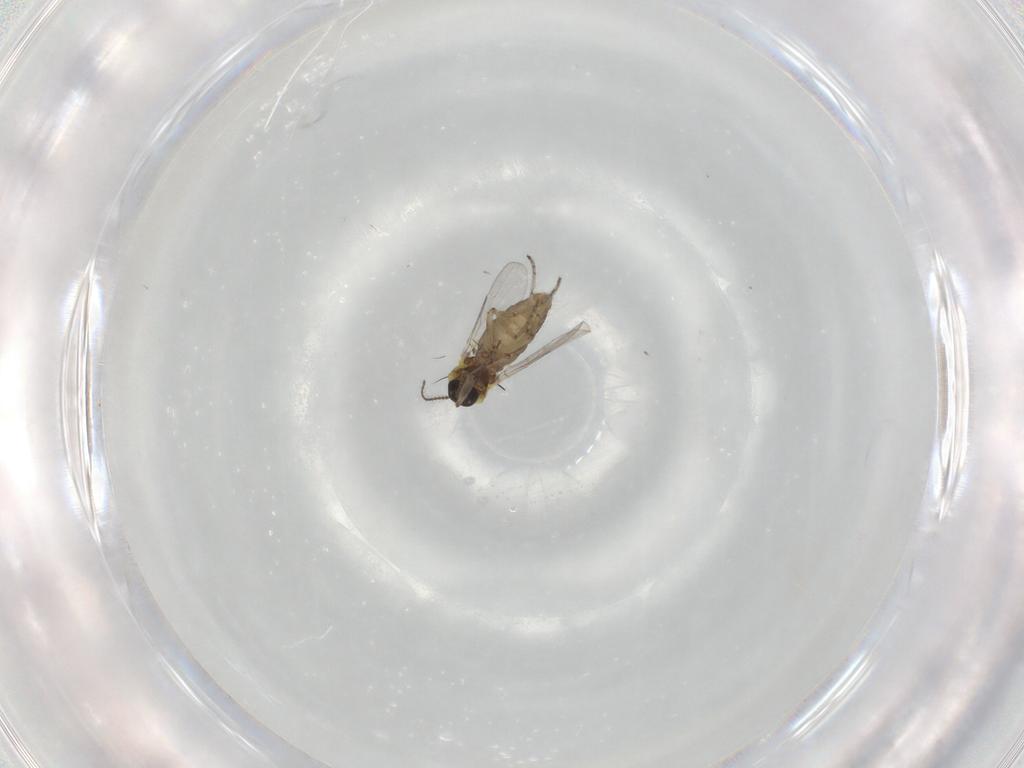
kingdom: Animalia
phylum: Arthropoda
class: Insecta
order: Diptera
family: Ceratopogonidae
